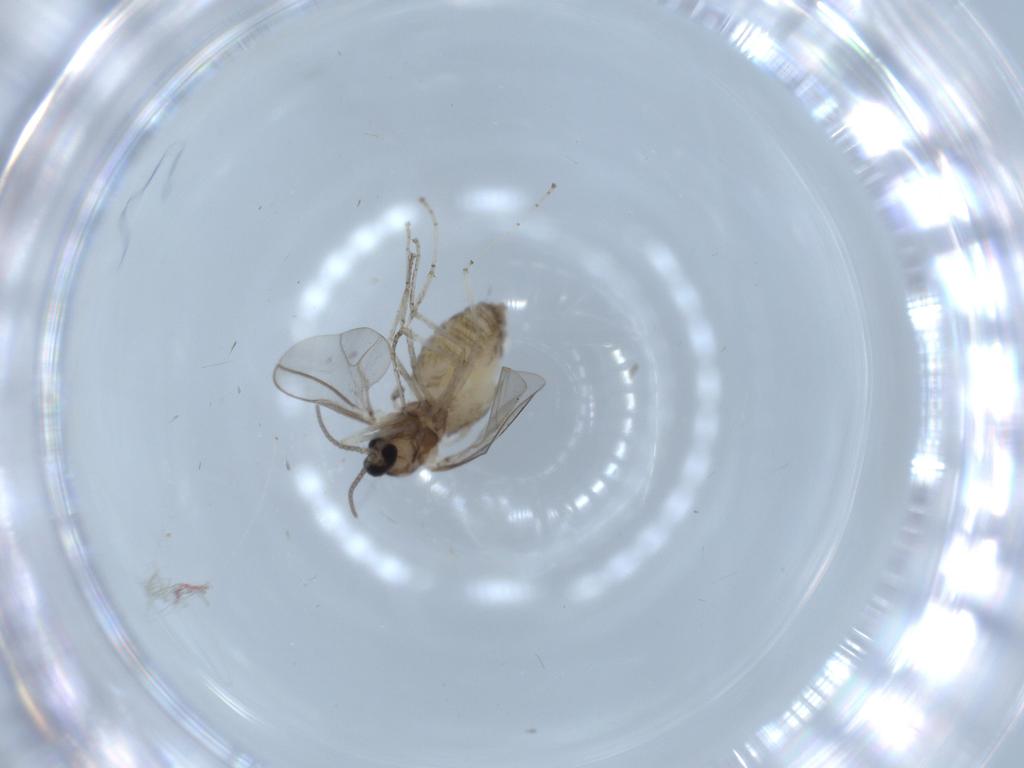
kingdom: Animalia
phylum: Arthropoda
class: Insecta
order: Diptera
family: Cecidomyiidae
